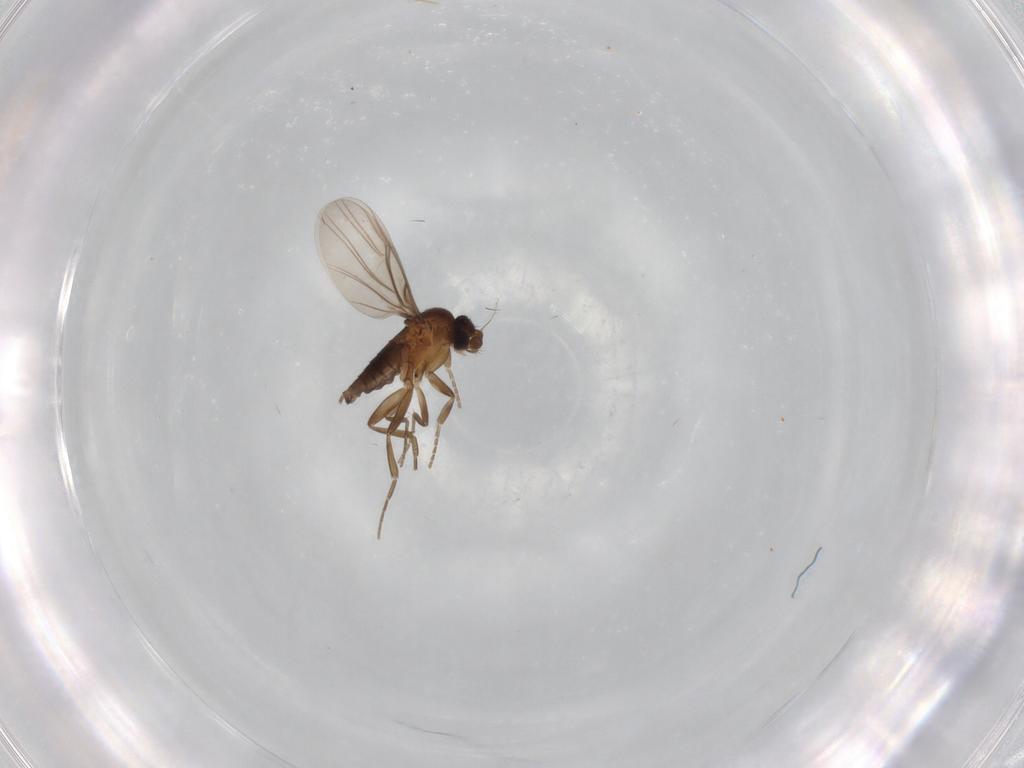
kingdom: Animalia
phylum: Arthropoda
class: Insecta
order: Diptera
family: Phoridae
